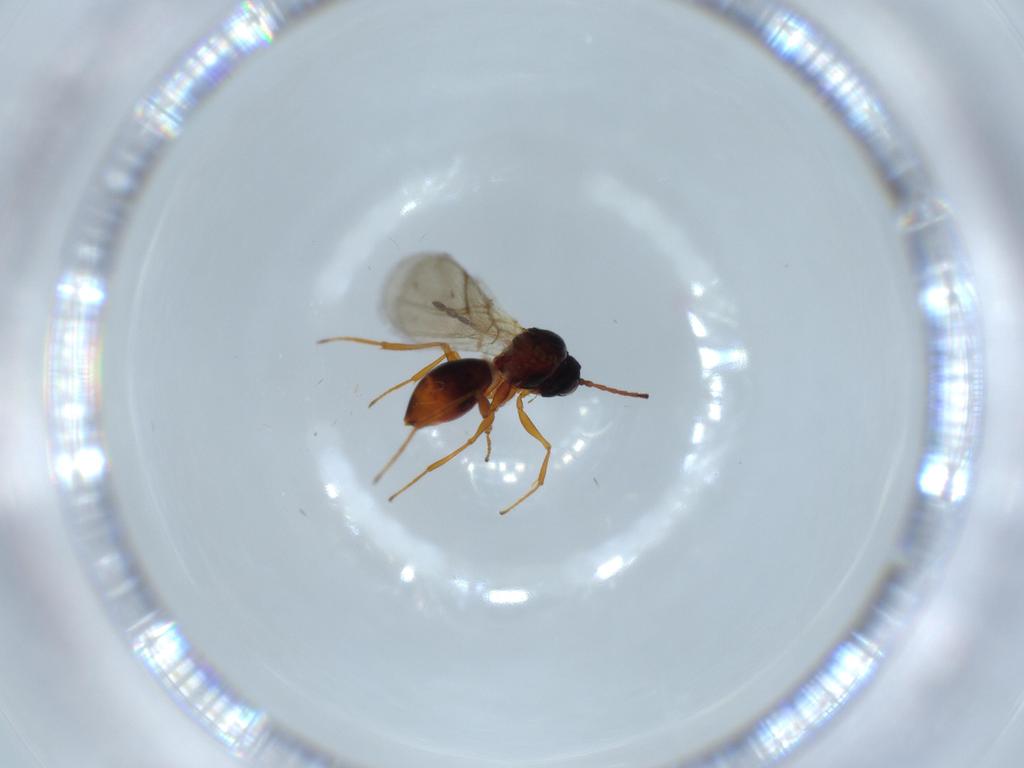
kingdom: Animalia
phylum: Arthropoda
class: Insecta
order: Hymenoptera
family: Figitidae
